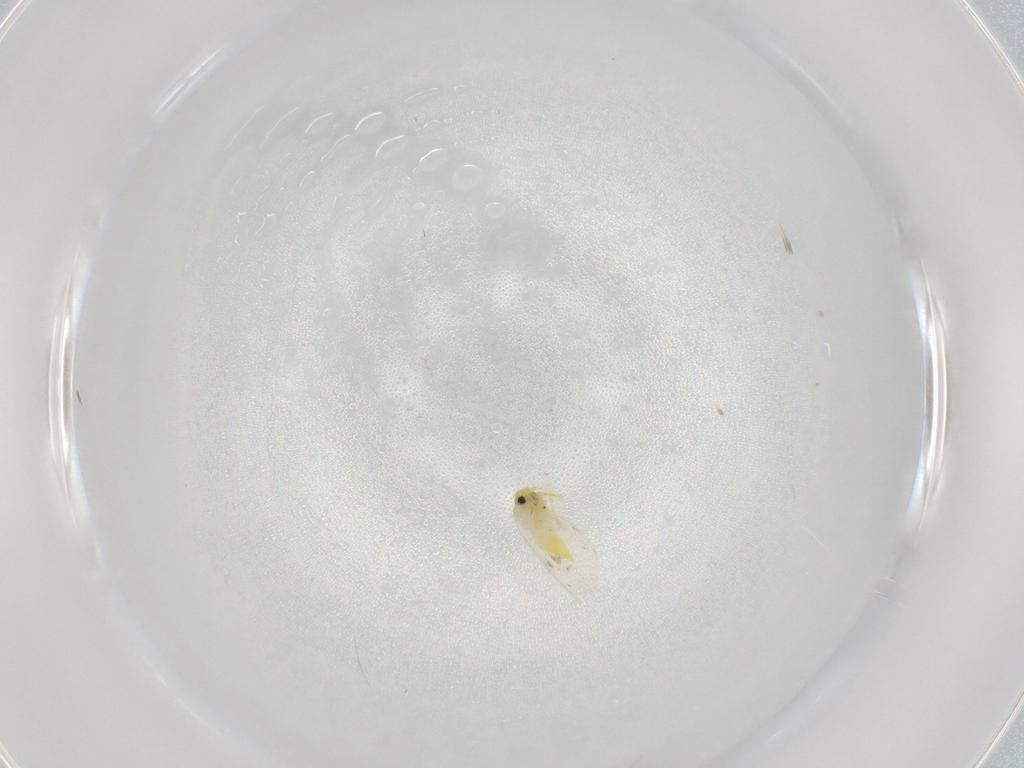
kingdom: Animalia
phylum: Arthropoda
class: Insecta
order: Hemiptera
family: Aleyrodidae
